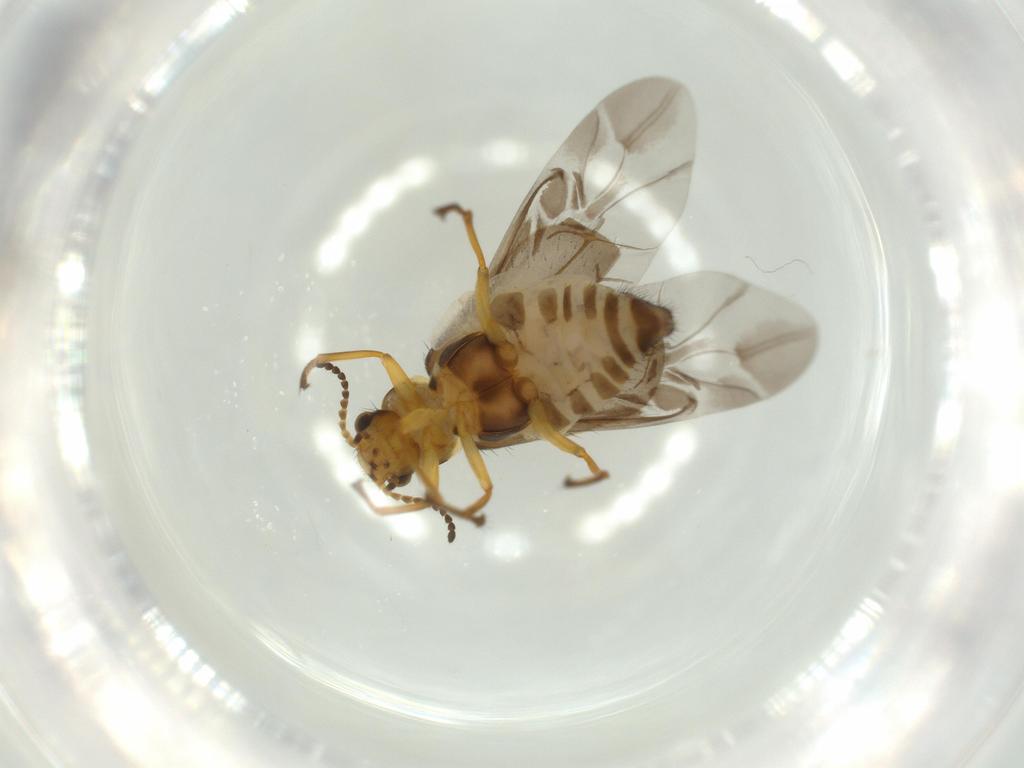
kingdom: Animalia
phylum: Arthropoda
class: Insecta
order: Coleoptera
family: Melyridae
